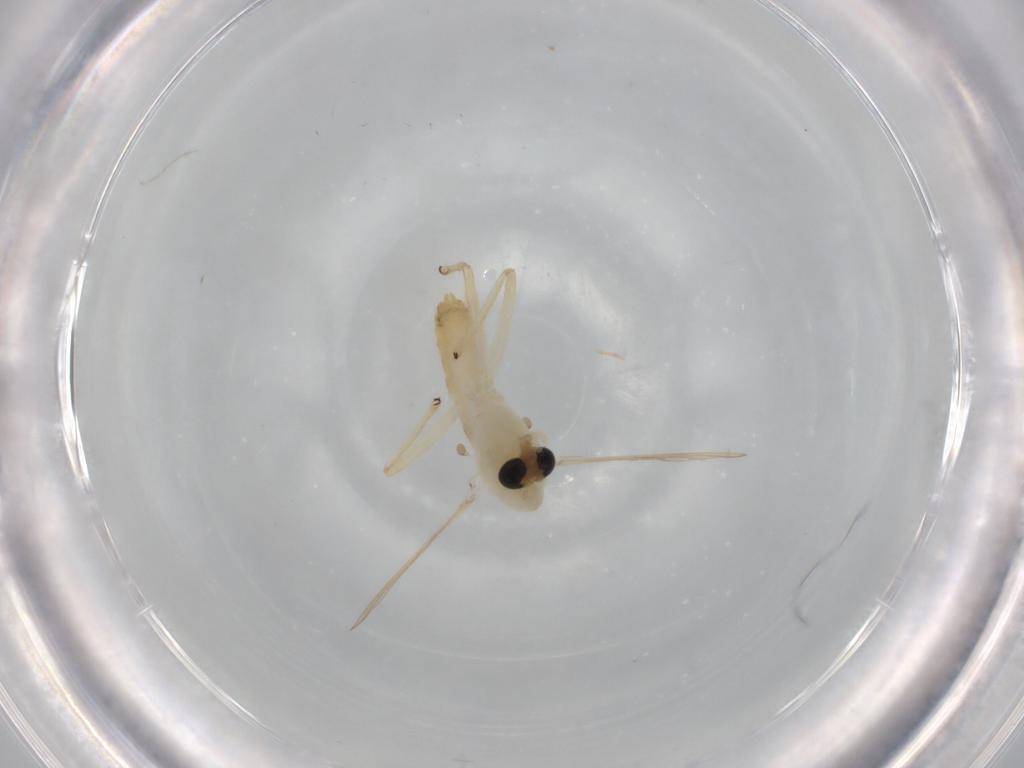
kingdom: Animalia
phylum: Arthropoda
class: Insecta
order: Diptera
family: Chironomidae
